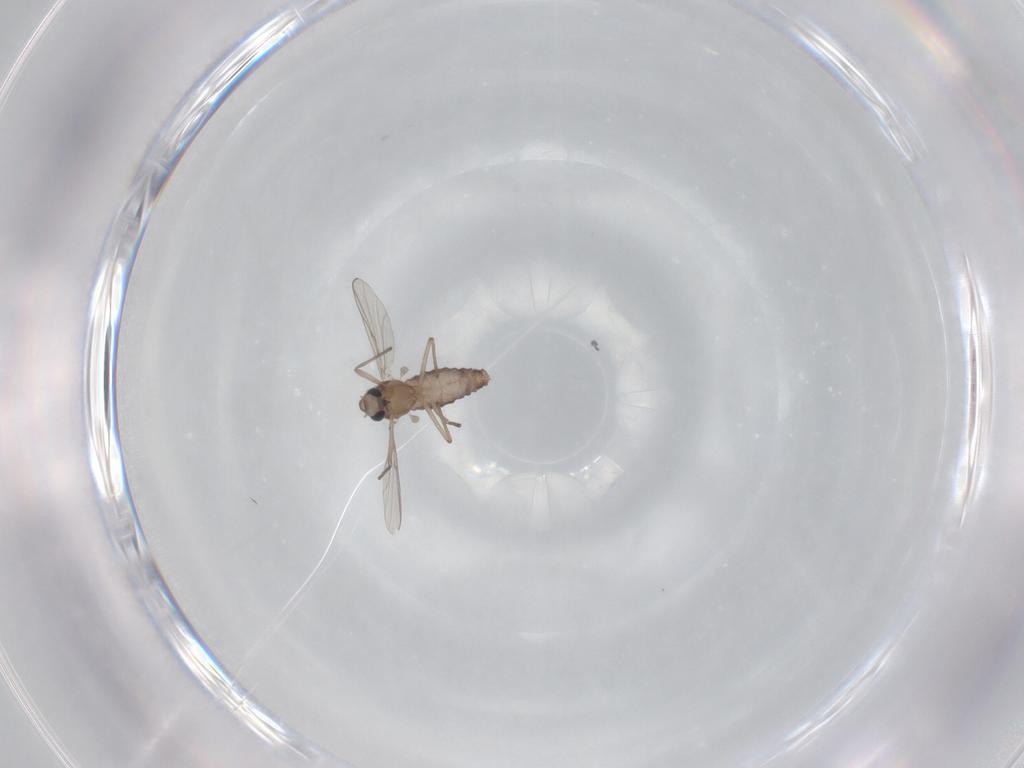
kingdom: Animalia
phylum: Arthropoda
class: Insecta
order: Diptera
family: Chironomidae
